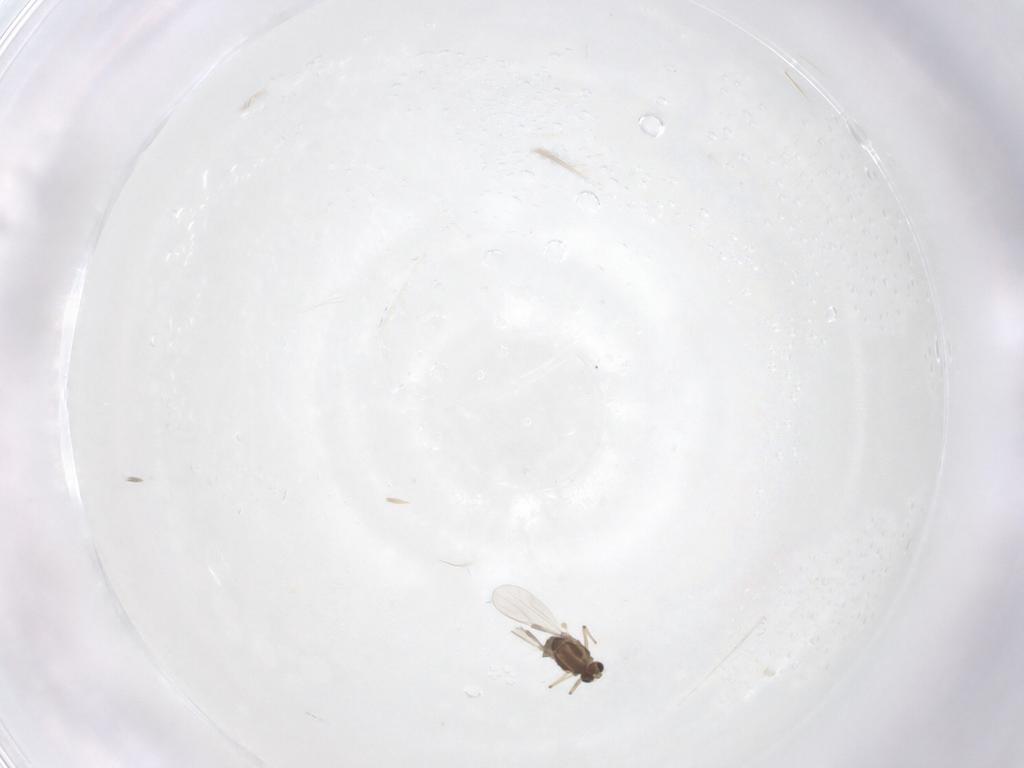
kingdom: Animalia
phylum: Arthropoda
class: Insecta
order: Diptera
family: Chironomidae
